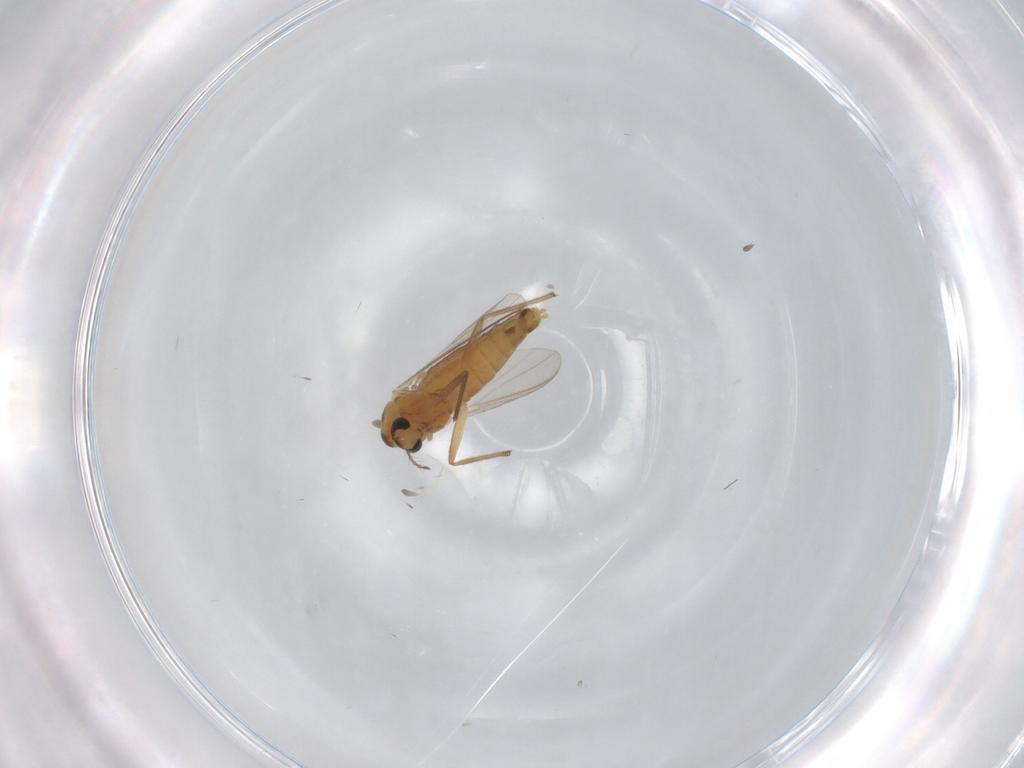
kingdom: Animalia
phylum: Arthropoda
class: Insecta
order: Diptera
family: Chironomidae
